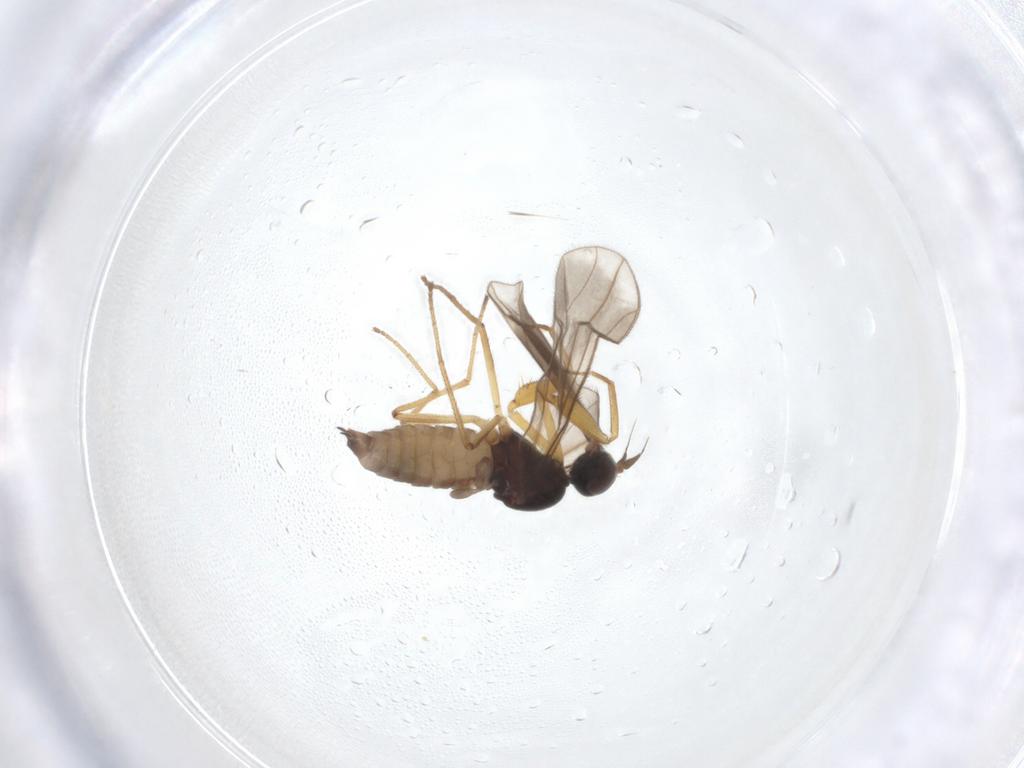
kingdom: Animalia
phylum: Arthropoda
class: Insecta
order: Diptera
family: Empididae
